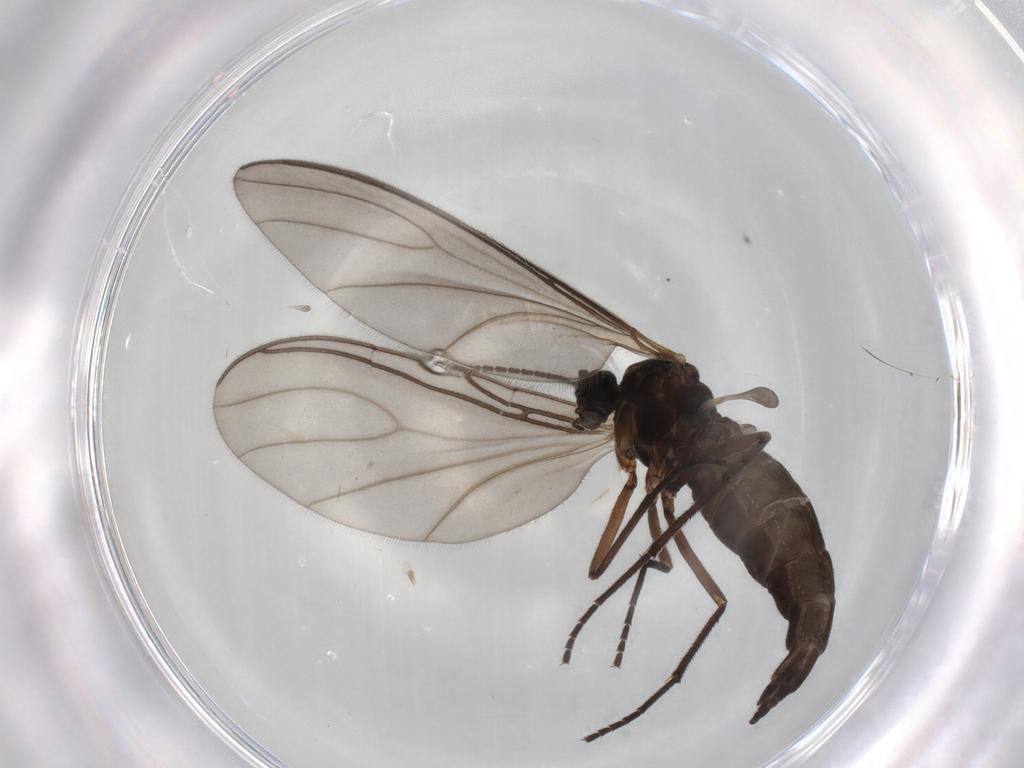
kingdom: Animalia
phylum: Arthropoda
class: Insecta
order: Diptera
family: Sciaridae
